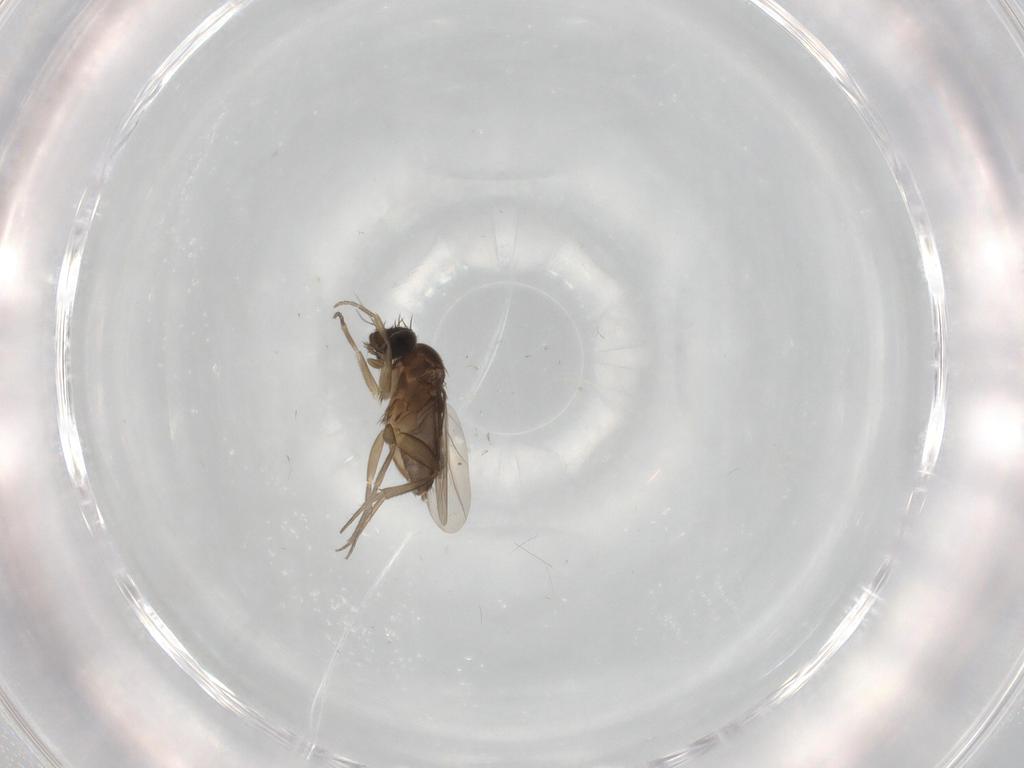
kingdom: Animalia
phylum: Arthropoda
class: Insecta
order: Diptera
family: Phoridae
